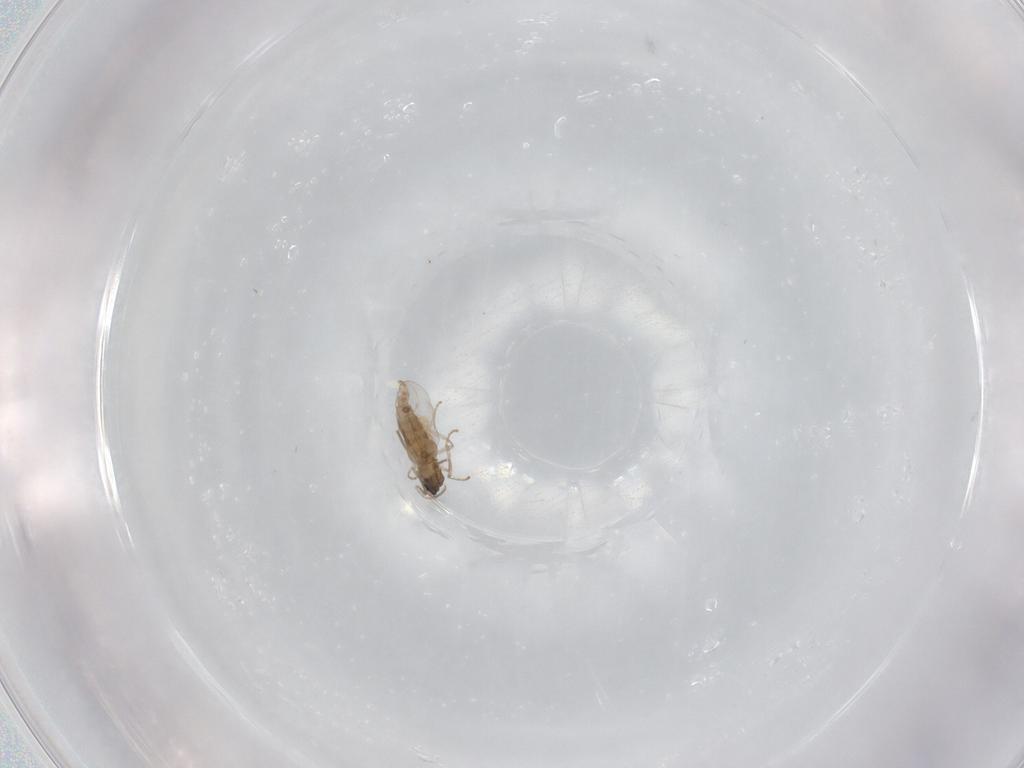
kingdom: Animalia
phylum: Arthropoda
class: Insecta
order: Diptera
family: Cecidomyiidae
